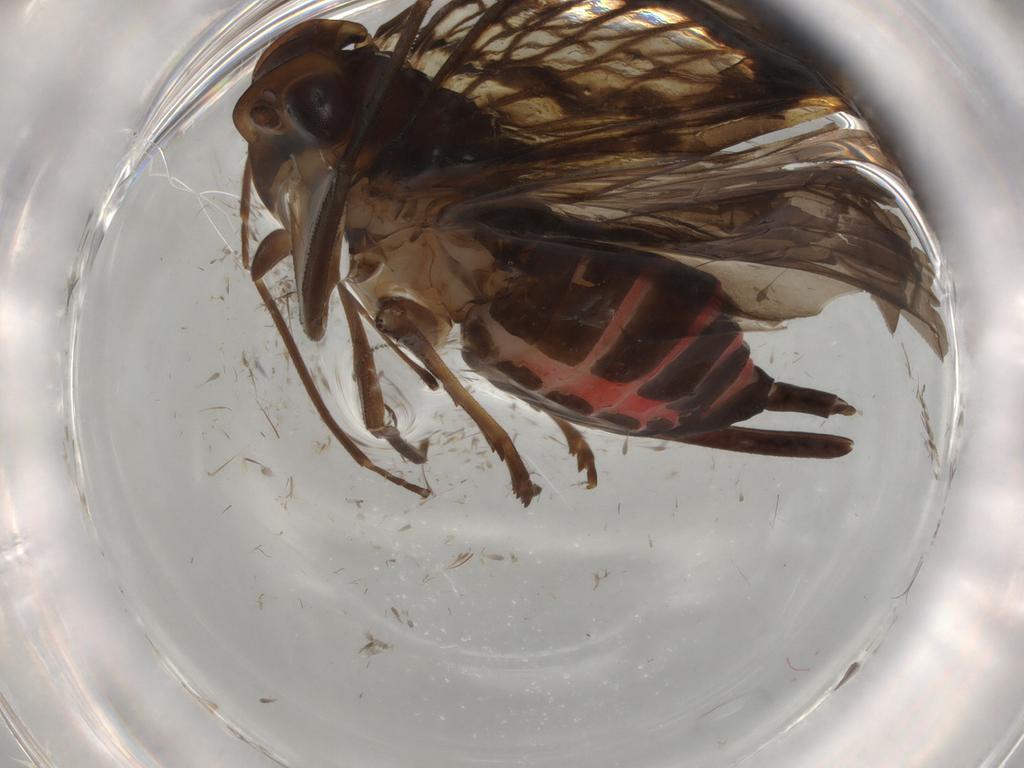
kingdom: Animalia
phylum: Arthropoda
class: Insecta
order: Hemiptera
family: Cixiidae
